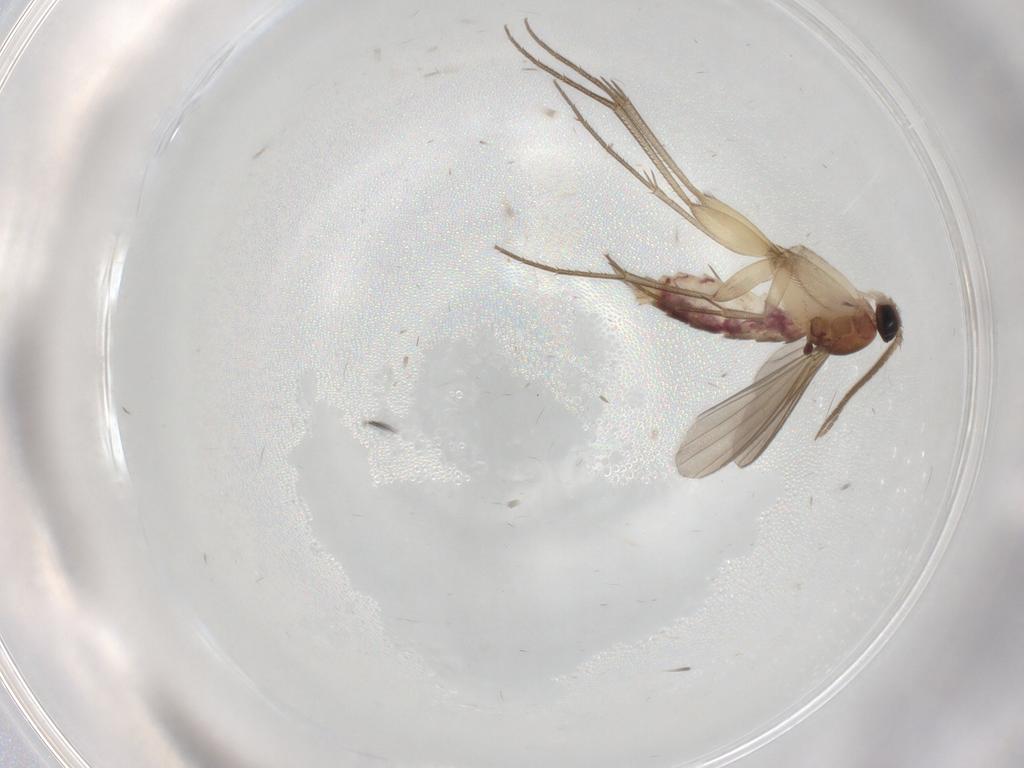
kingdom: Animalia
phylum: Arthropoda
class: Insecta
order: Diptera
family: Mycetophilidae
